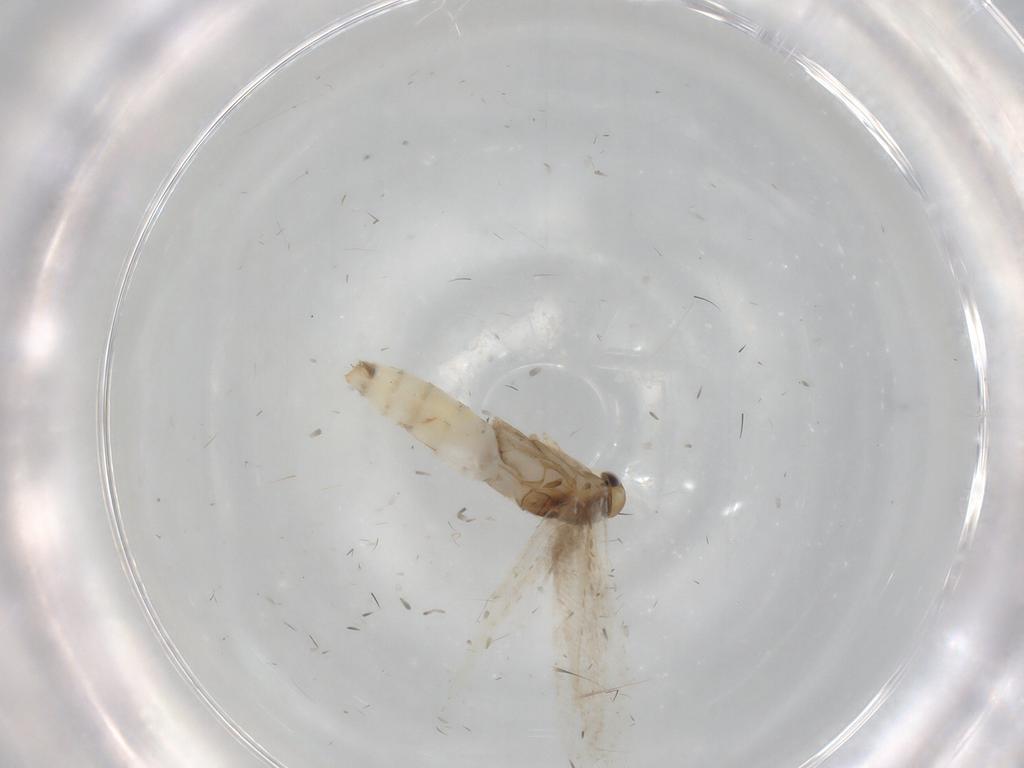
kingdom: Animalia
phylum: Arthropoda
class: Insecta
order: Lepidoptera
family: Gracillariidae
